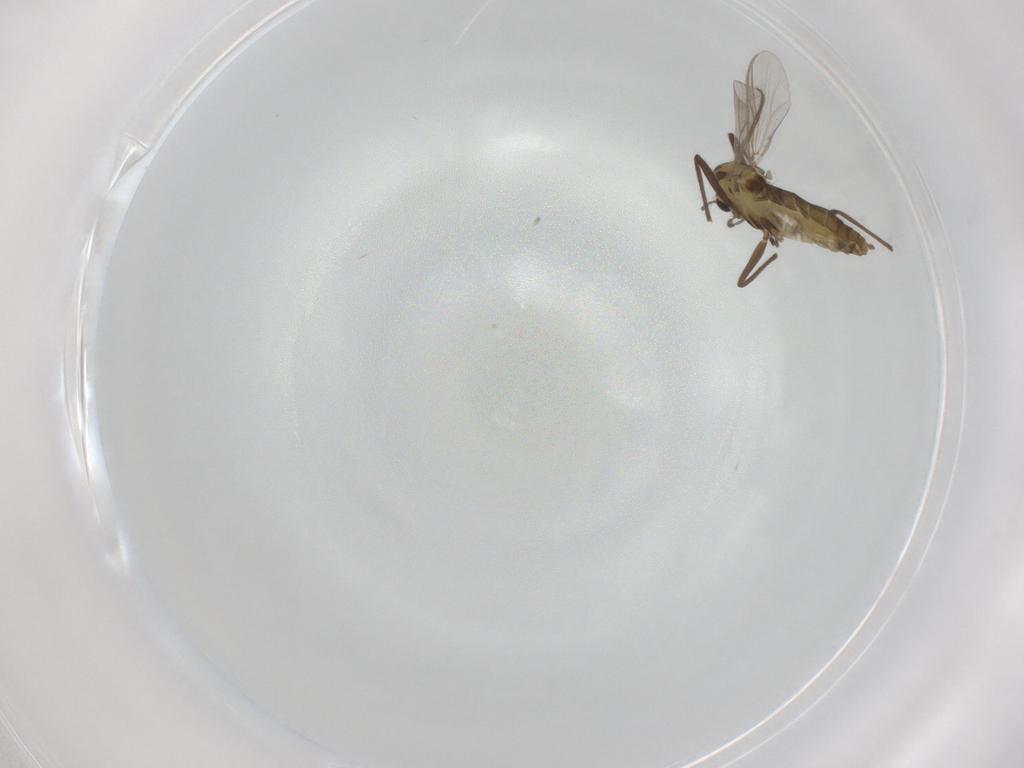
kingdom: Animalia
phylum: Arthropoda
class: Insecta
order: Diptera
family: Chironomidae
